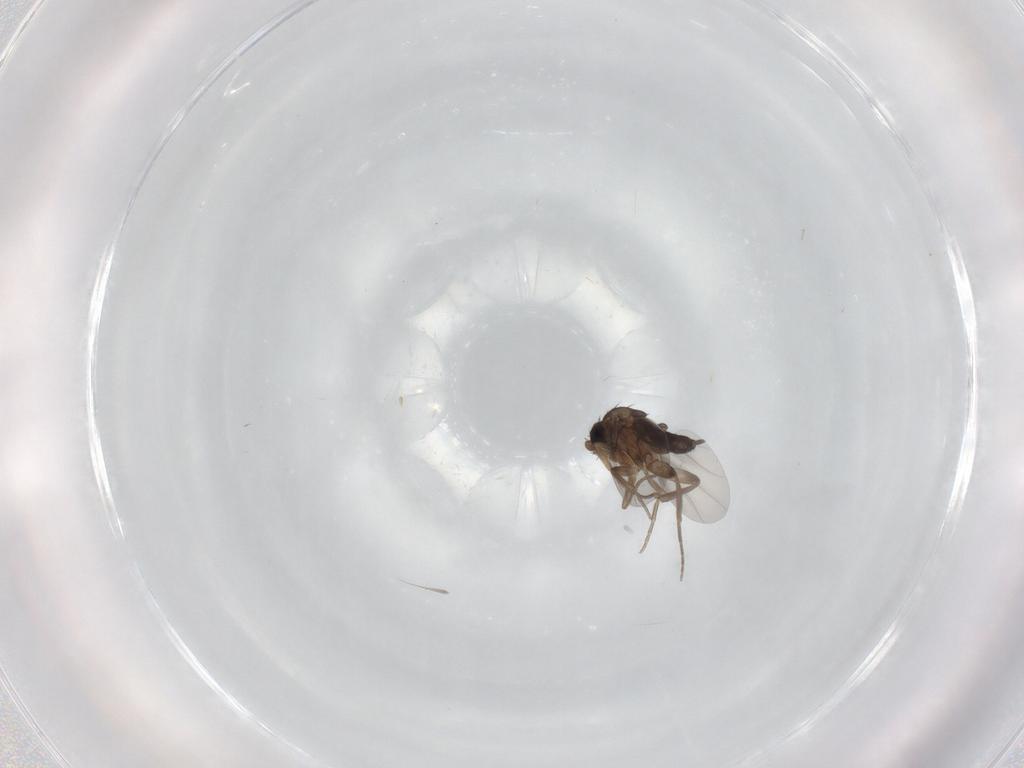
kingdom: Animalia
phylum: Arthropoda
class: Insecta
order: Diptera
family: Phoridae
